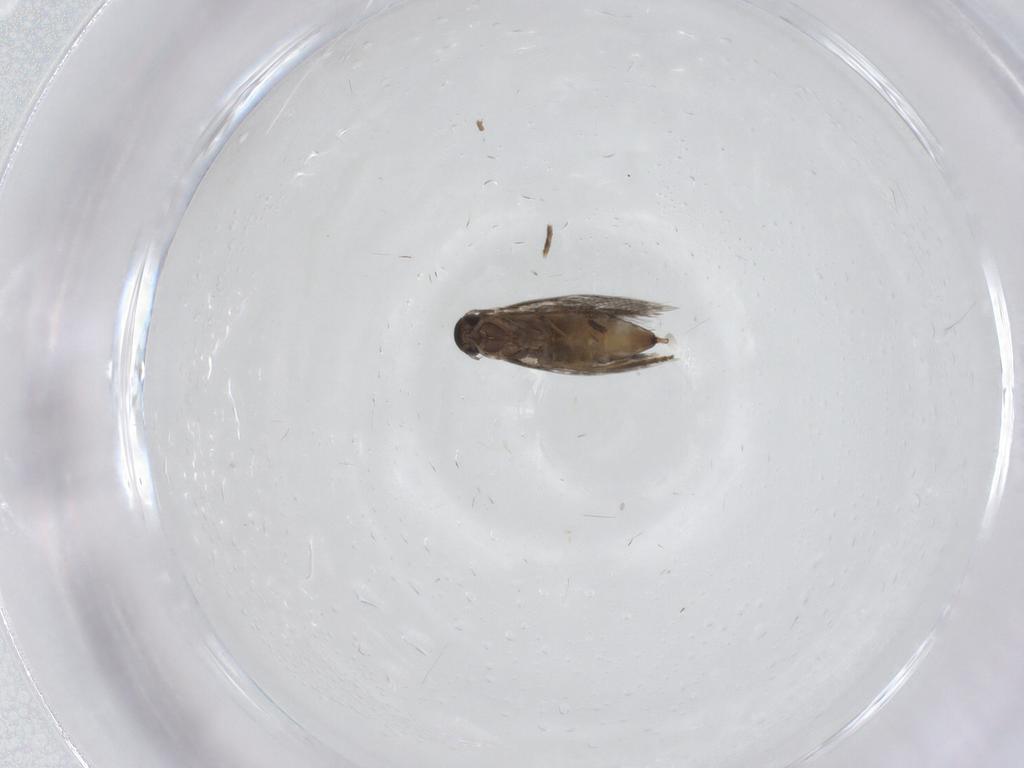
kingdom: Animalia
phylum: Arthropoda
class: Insecta
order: Lepidoptera
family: Elachistidae
